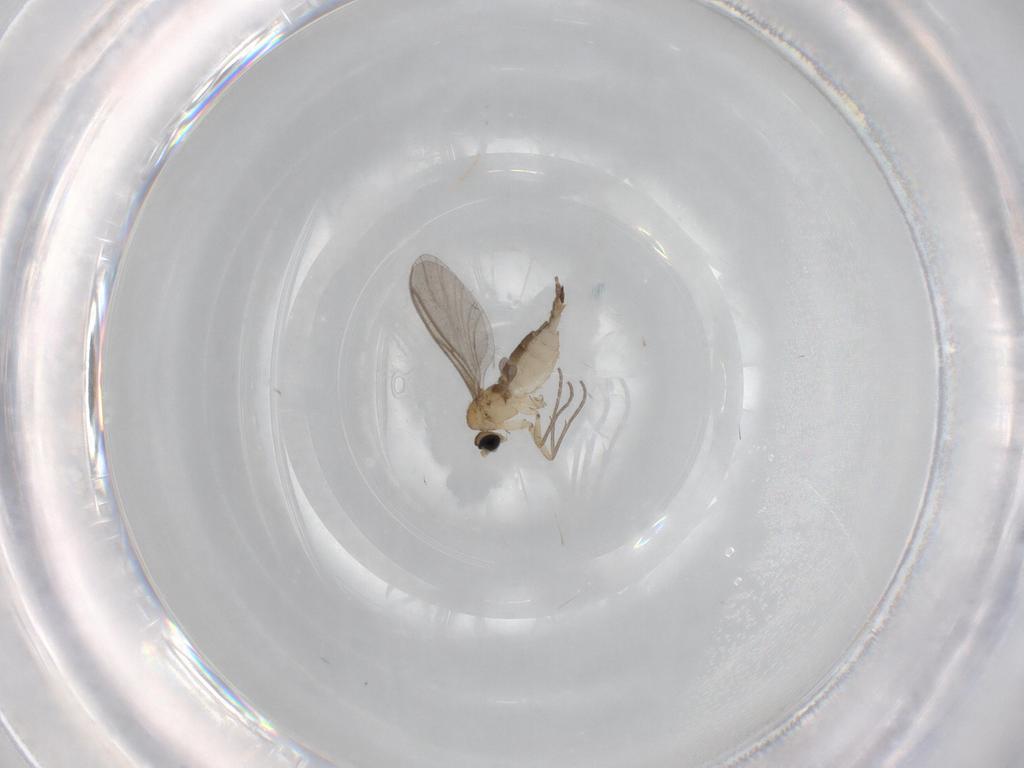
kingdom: Animalia
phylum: Arthropoda
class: Insecta
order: Diptera
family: Sciaridae
